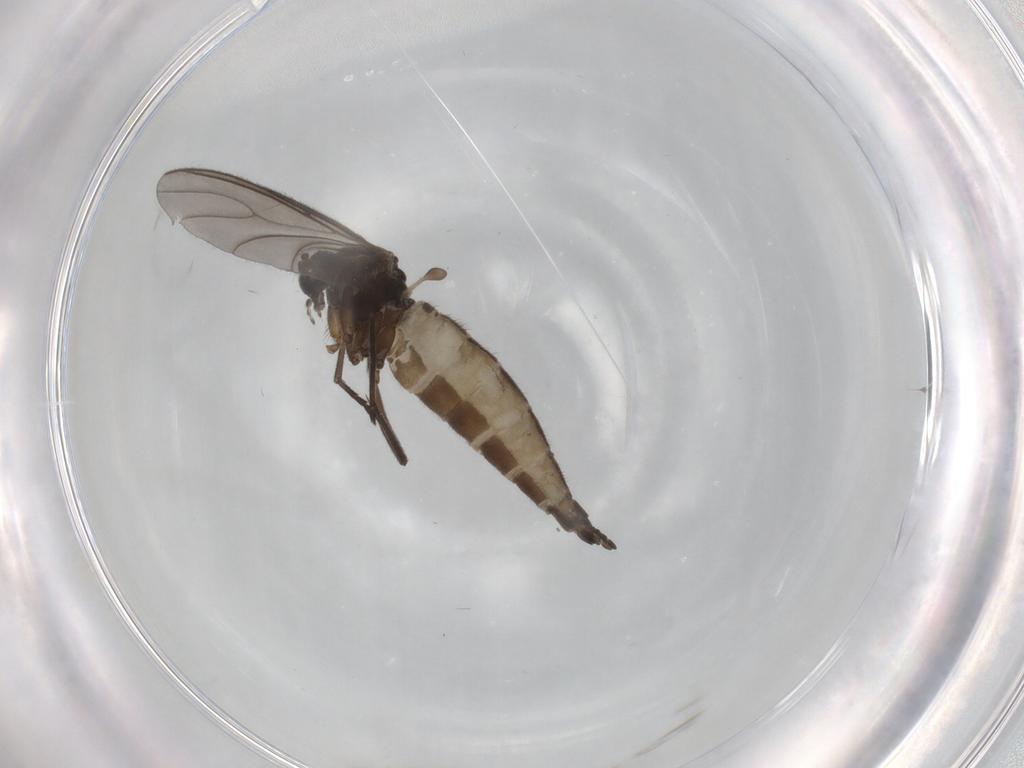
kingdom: Animalia
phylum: Arthropoda
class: Insecta
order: Diptera
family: Sciaridae
